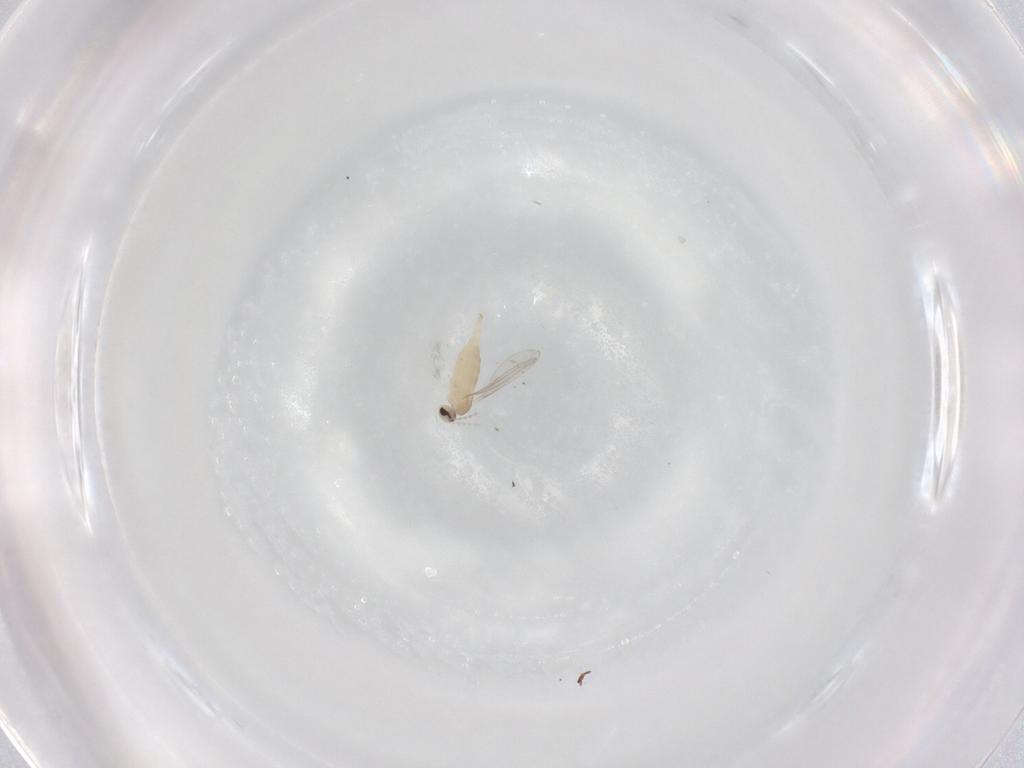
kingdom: Animalia
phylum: Arthropoda
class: Insecta
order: Diptera
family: Cecidomyiidae
